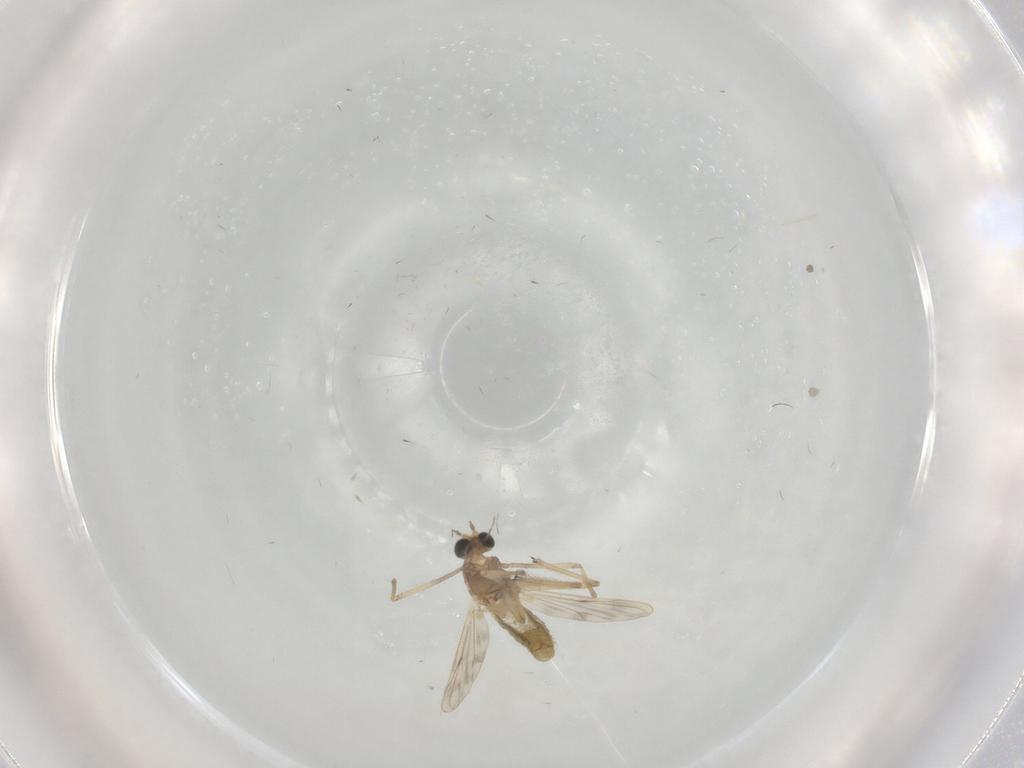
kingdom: Animalia
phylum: Arthropoda
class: Insecta
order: Diptera
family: Chironomidae
